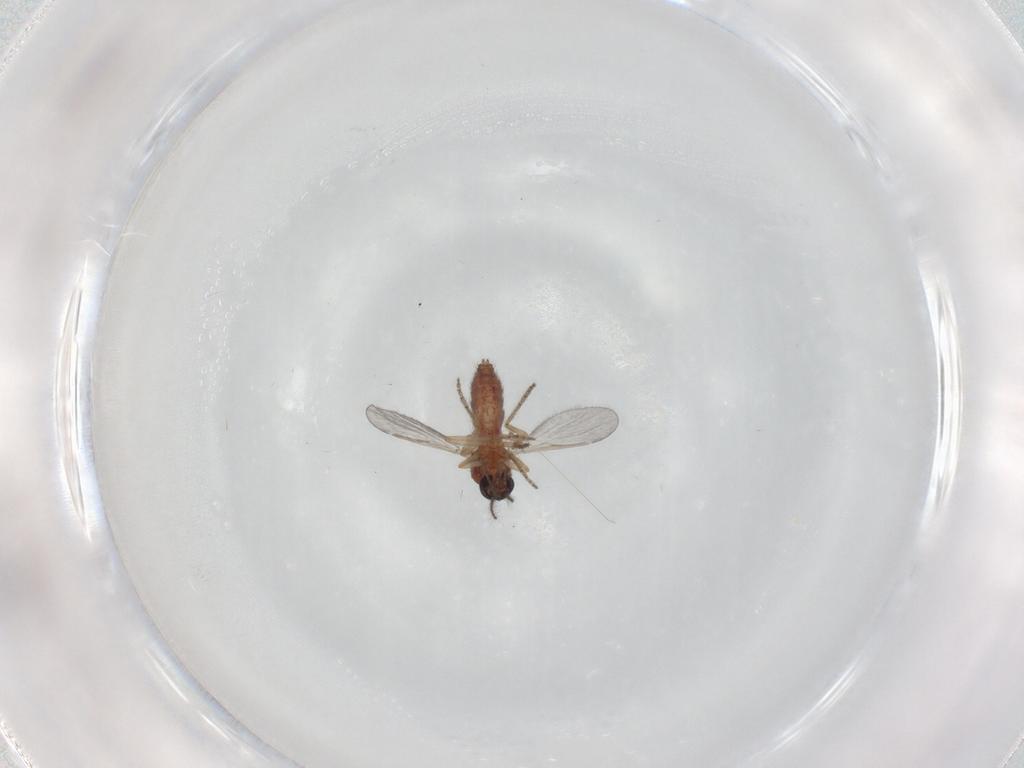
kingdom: Animalia
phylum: Arthropoda
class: Insecta
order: Diptera
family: Ceratopogonidae
